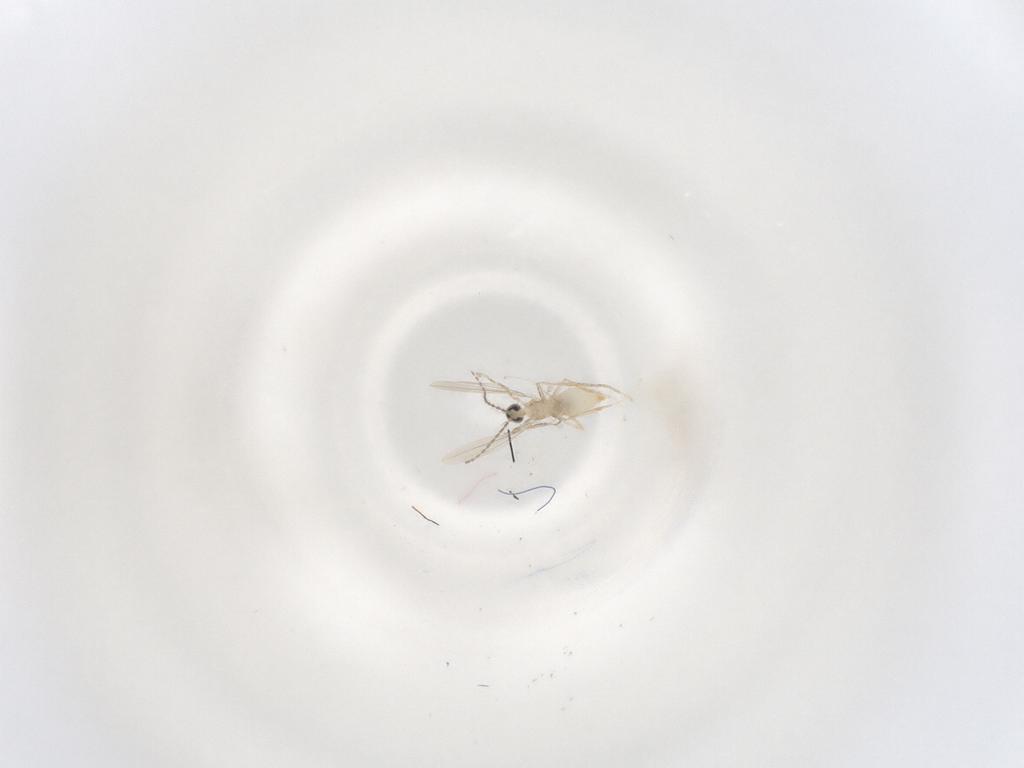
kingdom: Animalia
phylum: Arthropoda
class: Insecta
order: Diptera
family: Cecidomyiidae
